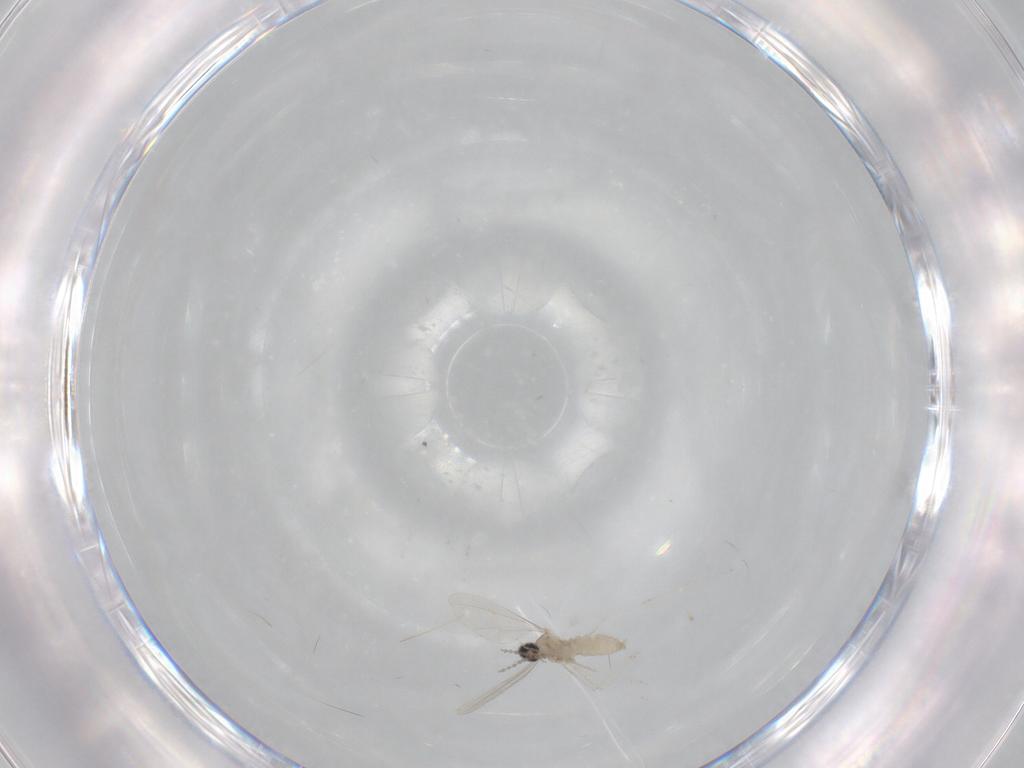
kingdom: Animalia
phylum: Arthropoda
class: Insecta
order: Diptera
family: Cecidomyiidae
